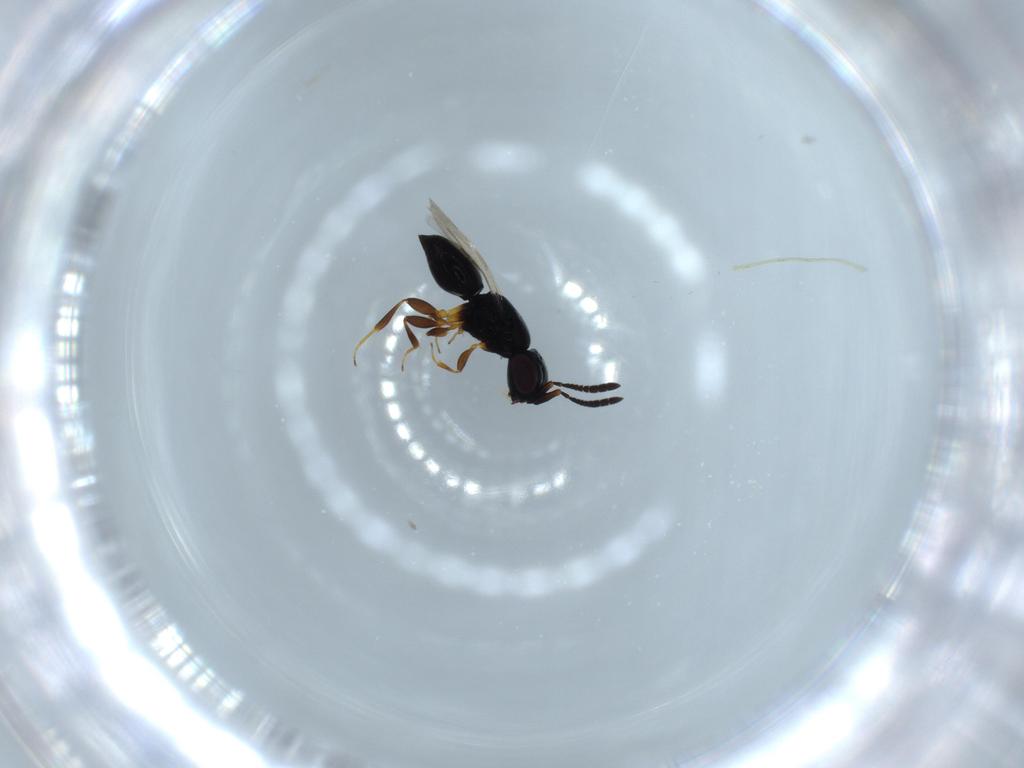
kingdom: Animalia
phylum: Arthropoda
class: Insecta
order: Hymenoptera
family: Ceraphronidae
